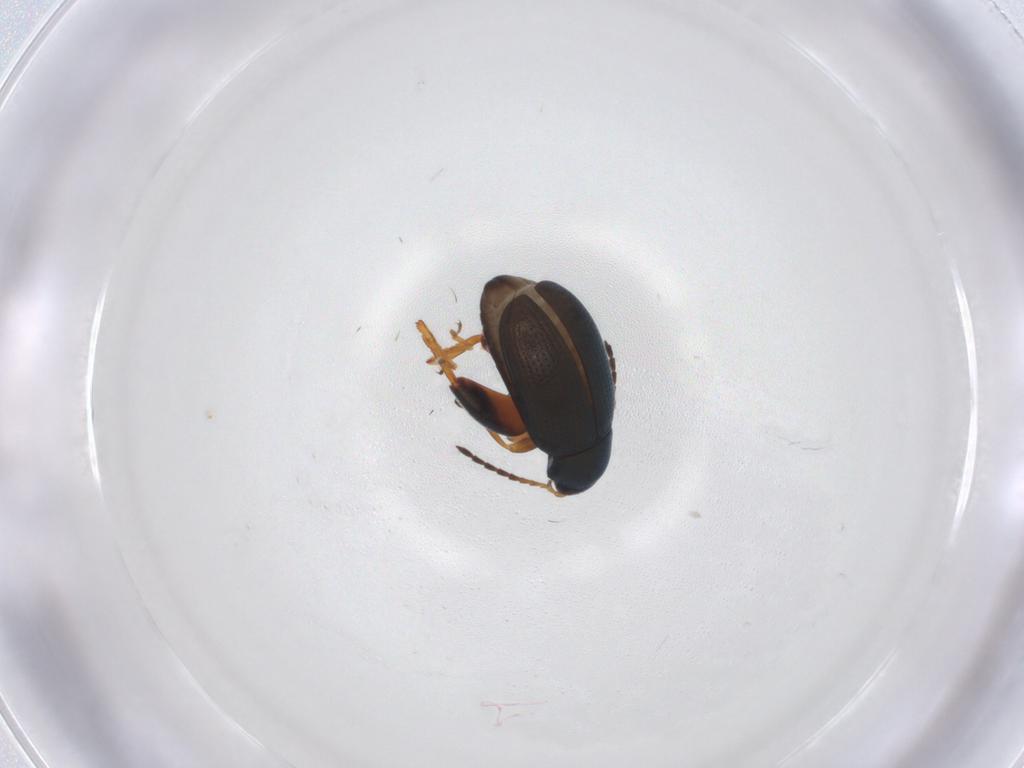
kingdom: Animalia
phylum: Arthropoda
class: Insecta
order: Coleoptera
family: Chrysomelidae
